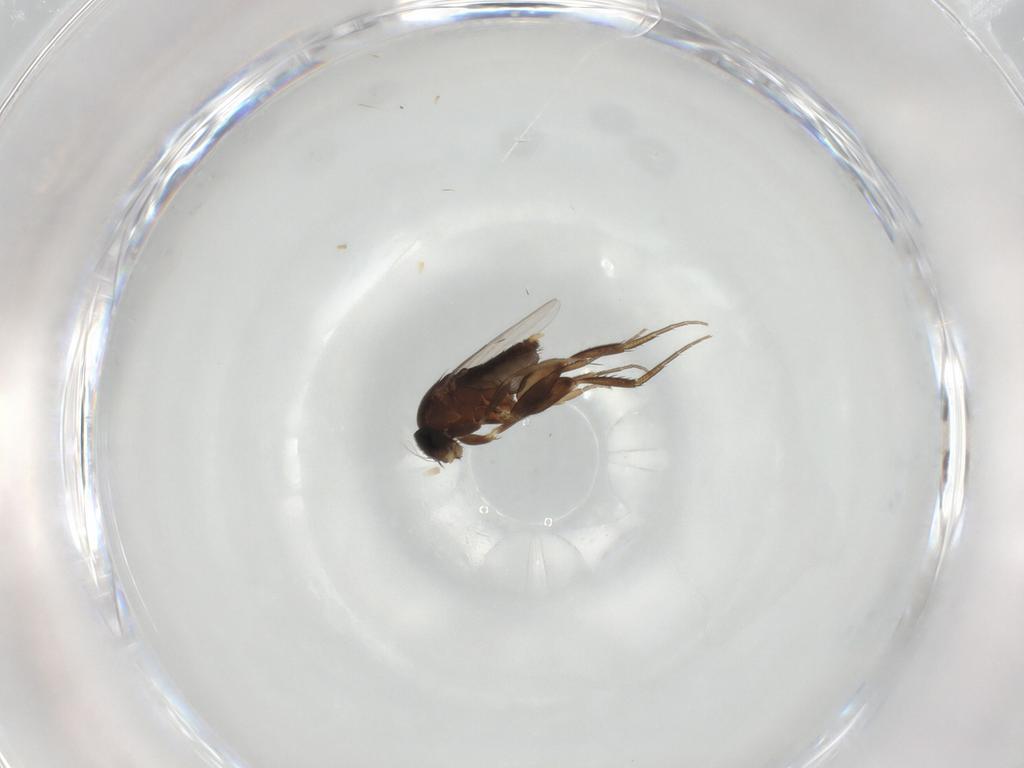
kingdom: Animalia
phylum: Arthropoda
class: Insecta
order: Diptera
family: Phoridae
